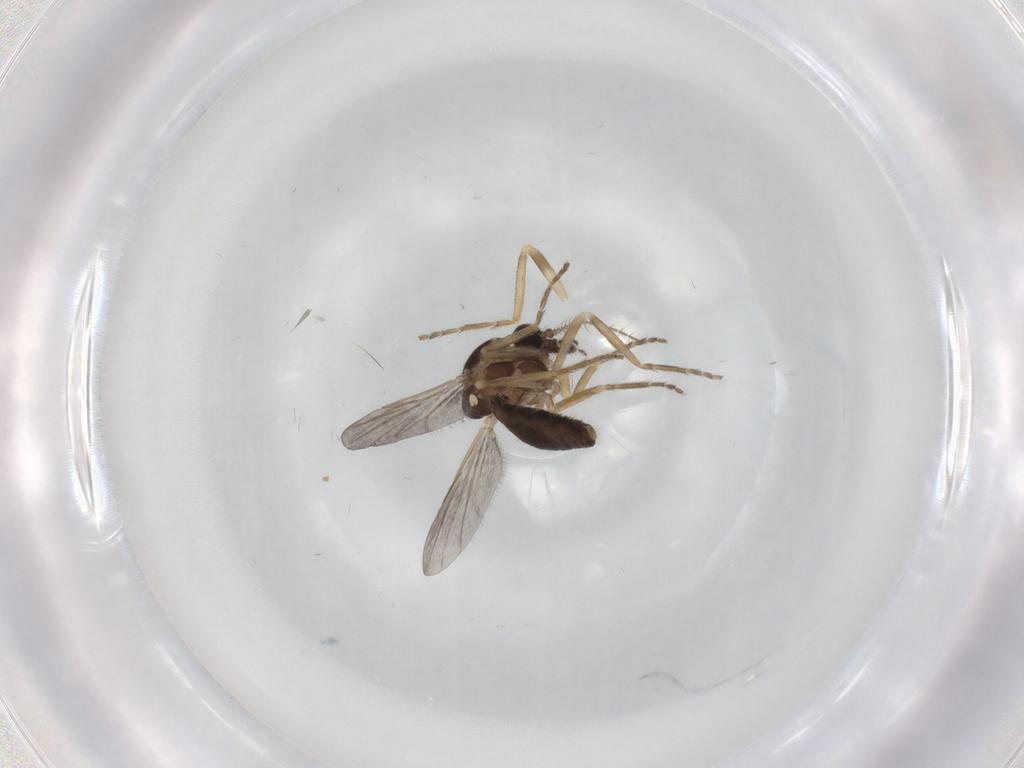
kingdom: Animalia
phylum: Arthropoda
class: Insecta
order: Diptera
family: Ceratopogonidae
